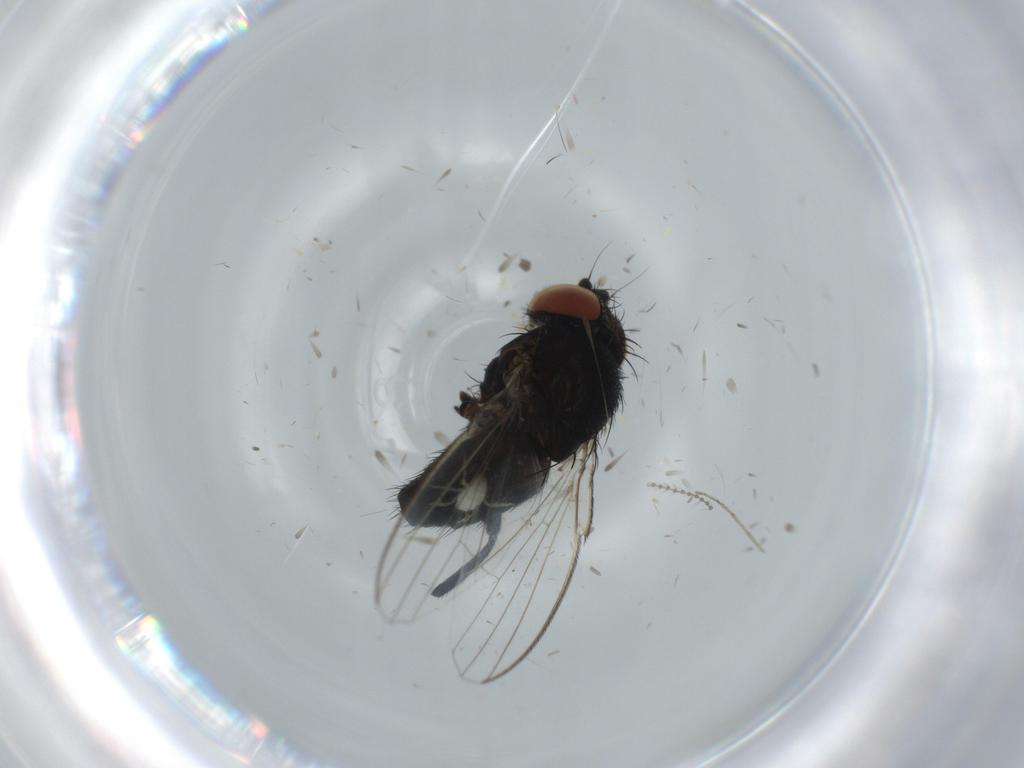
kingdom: Animalia
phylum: Arthropoda
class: Insecta
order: Diptera
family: Milichiidae
